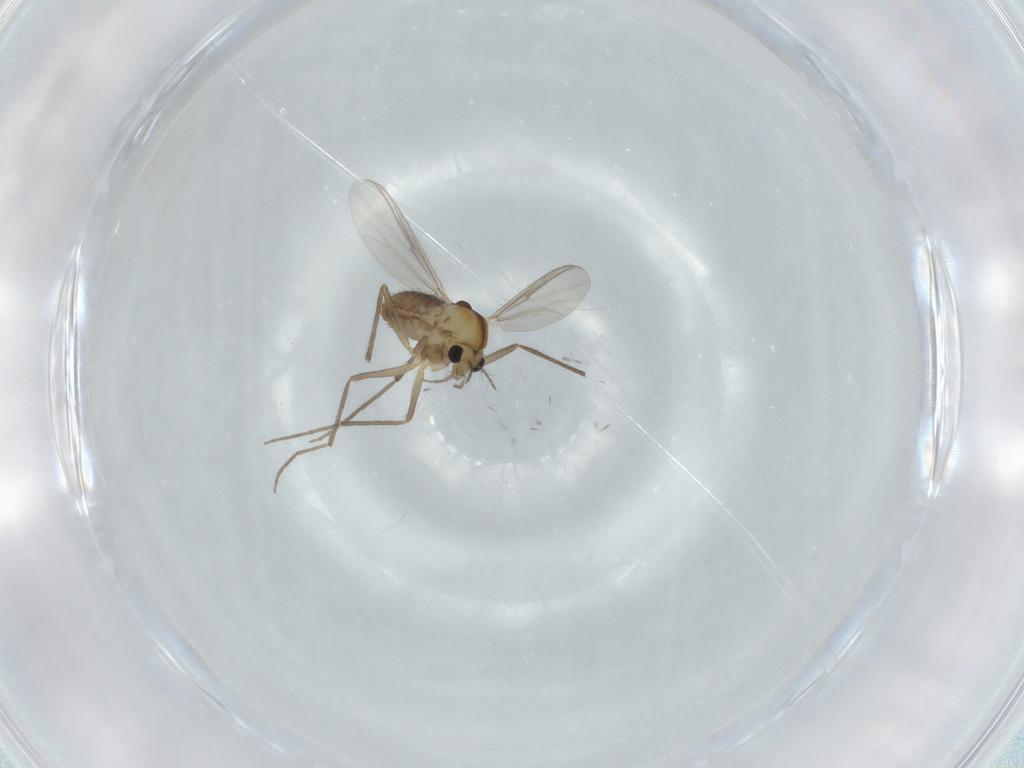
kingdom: Animalia
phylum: Arthropoda
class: Insecta
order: Diptera
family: Chironomidae
